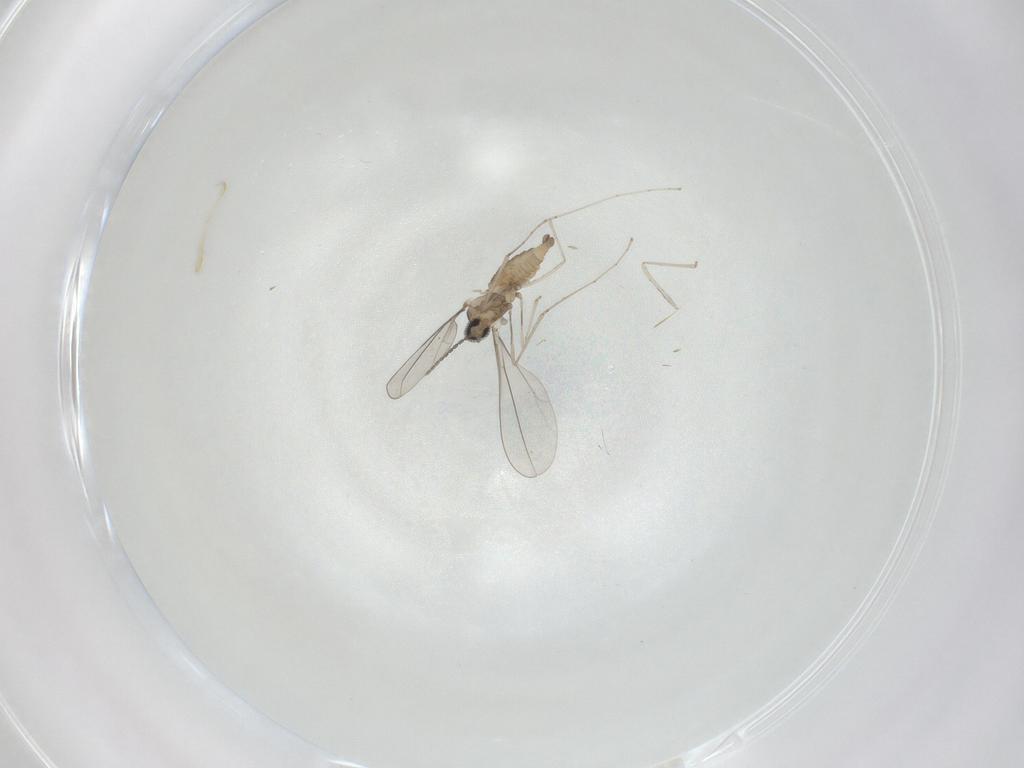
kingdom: Animalia
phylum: Arthropoda
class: Insecta
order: Diptera
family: Cecidomyiidae
